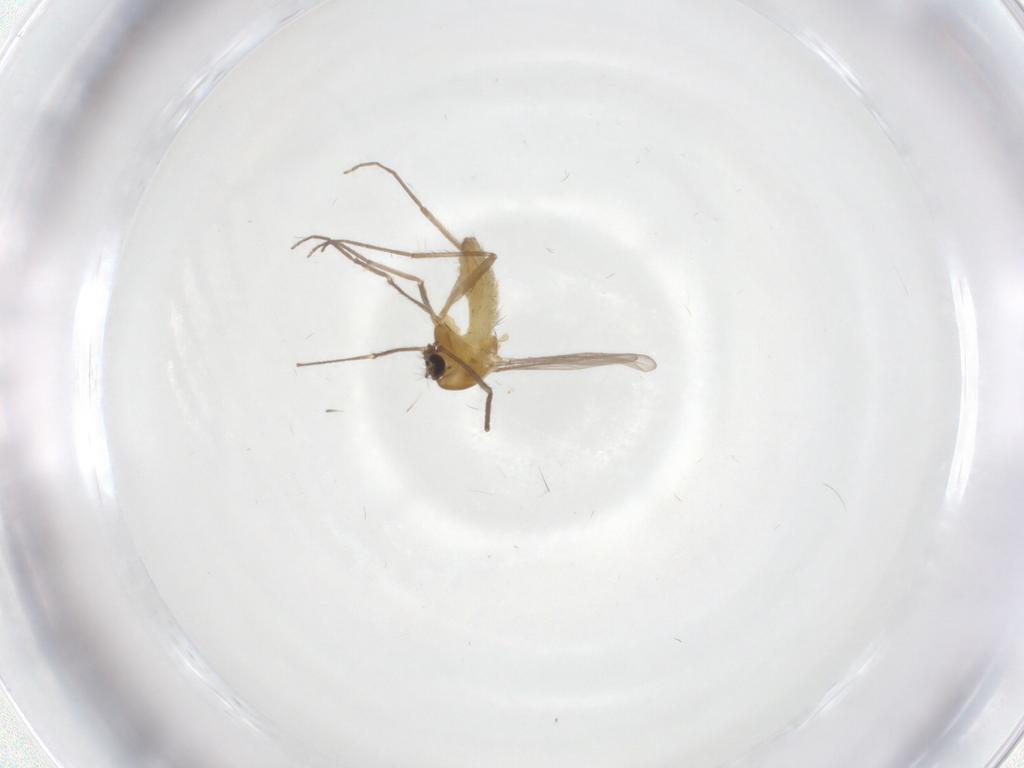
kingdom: Animalia
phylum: Arthropoda
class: Insecta
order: Diptera
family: Chironomidae
